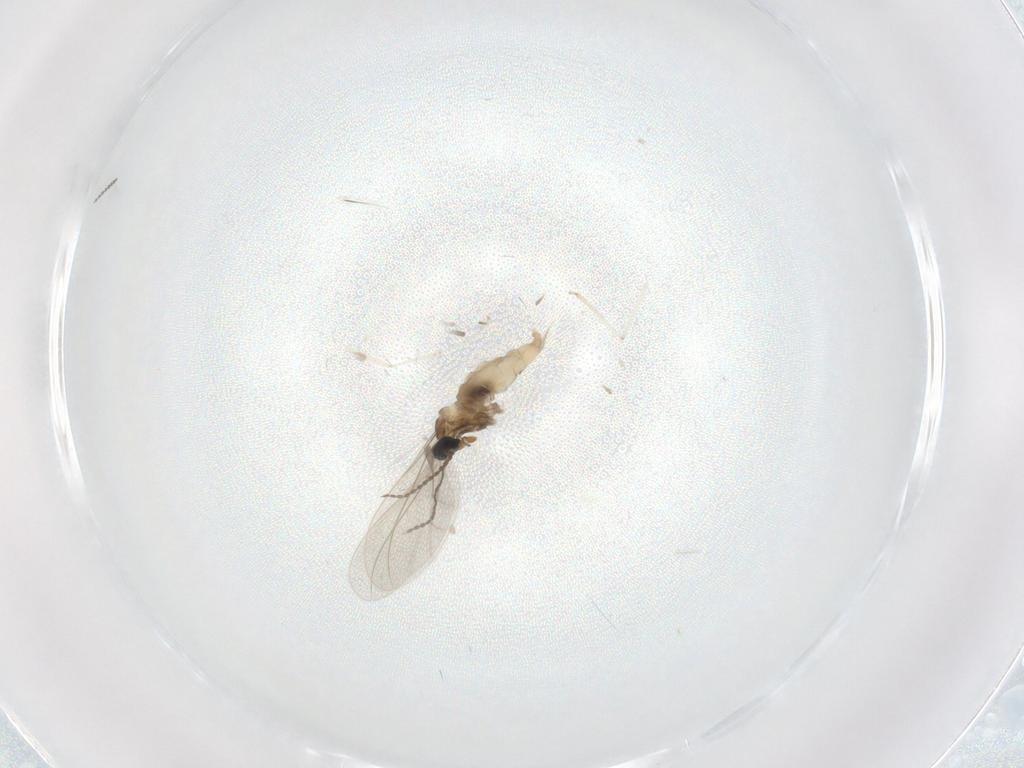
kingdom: Animalia
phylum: Arthropoda
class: Insecta
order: Diptera
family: Cecidomyiidae
